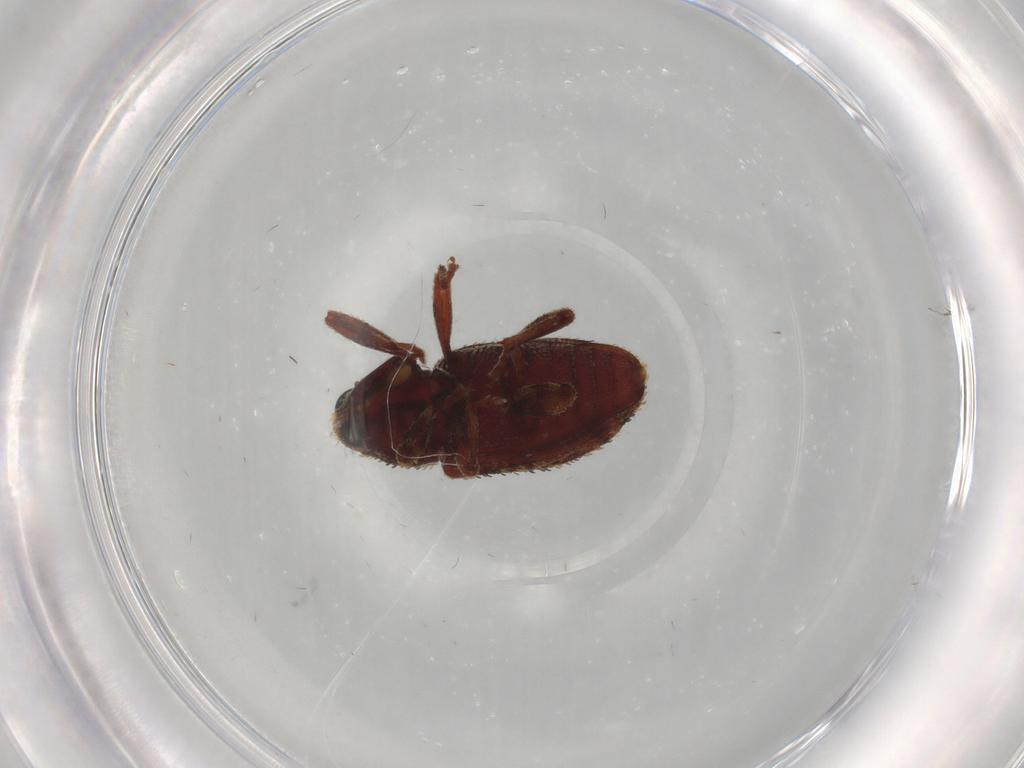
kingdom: Animalia
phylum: Arthropoda
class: Insecta
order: Coleoptera
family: Curculionidae
